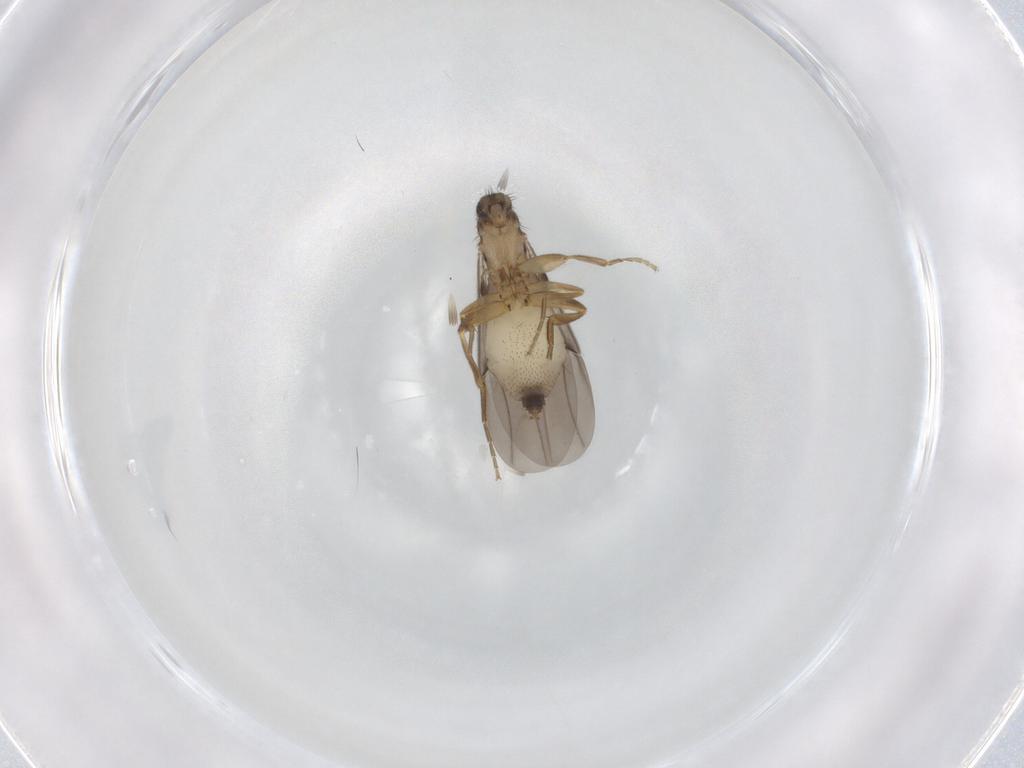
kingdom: Animalia
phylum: Arthropoda
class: Insecta
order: Diptera
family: Phoridae
